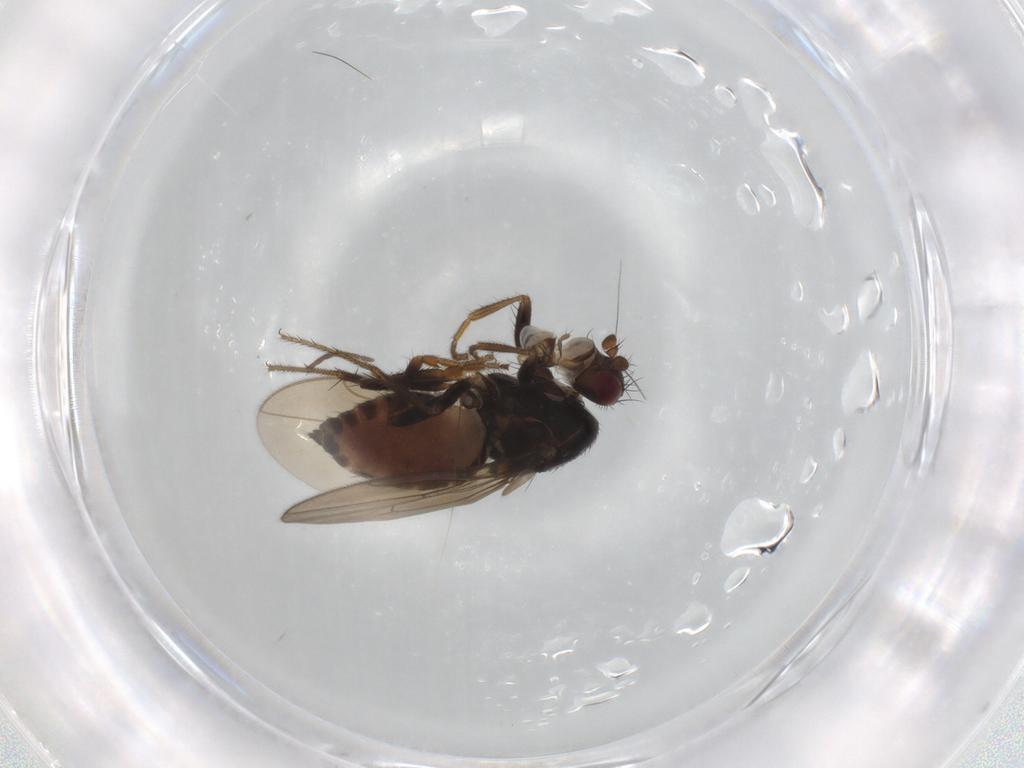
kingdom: Animalia
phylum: Arthropoda
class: Insecta
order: Diptera
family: Sphaeroceridae
